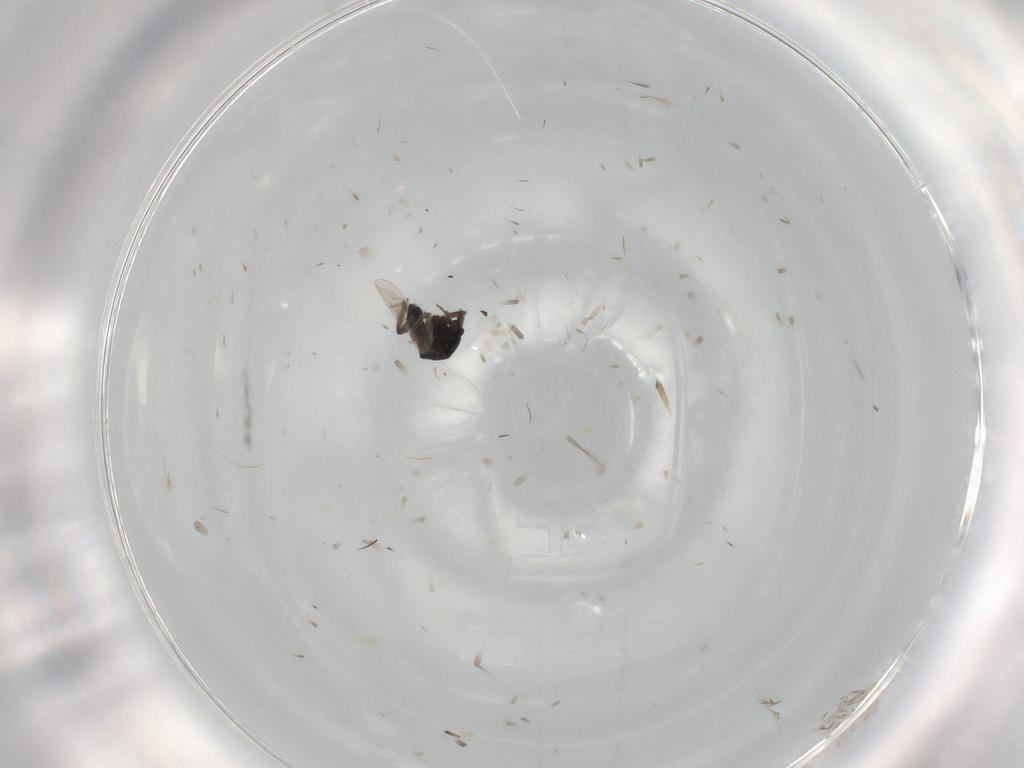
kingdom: Animalia
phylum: Arthropoda
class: Insecta
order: Diptera
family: Ceratopogonidae
